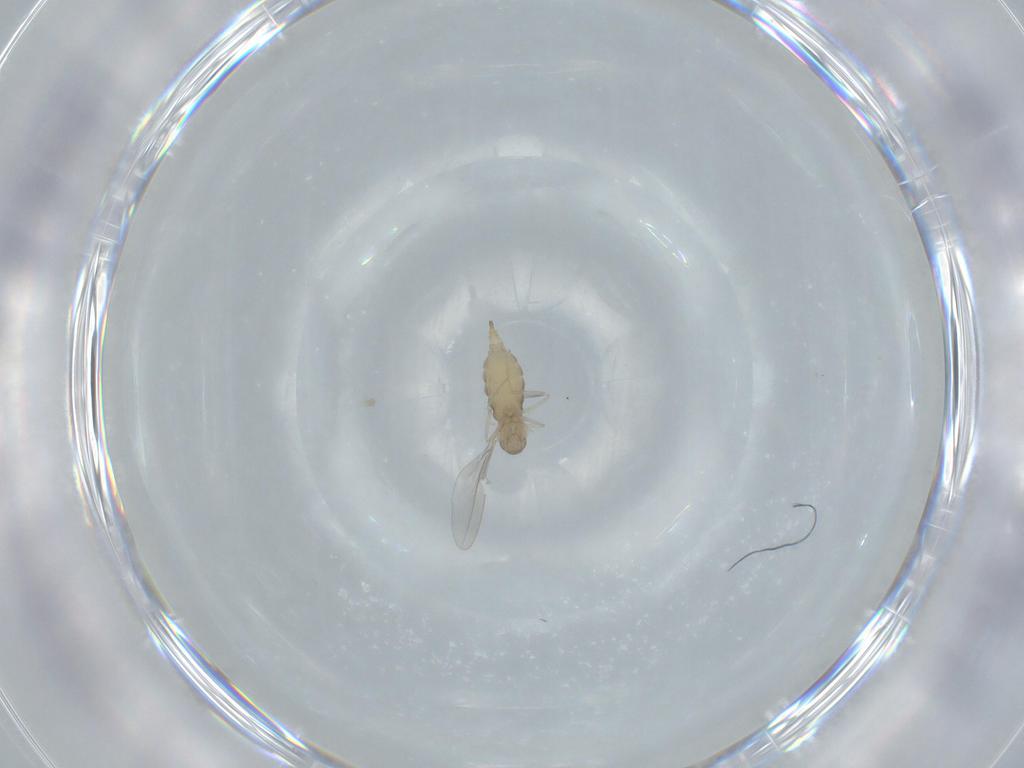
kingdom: Animalia
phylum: Arthropoda
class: Insecta
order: Diptera
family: Cecidomyiidae
